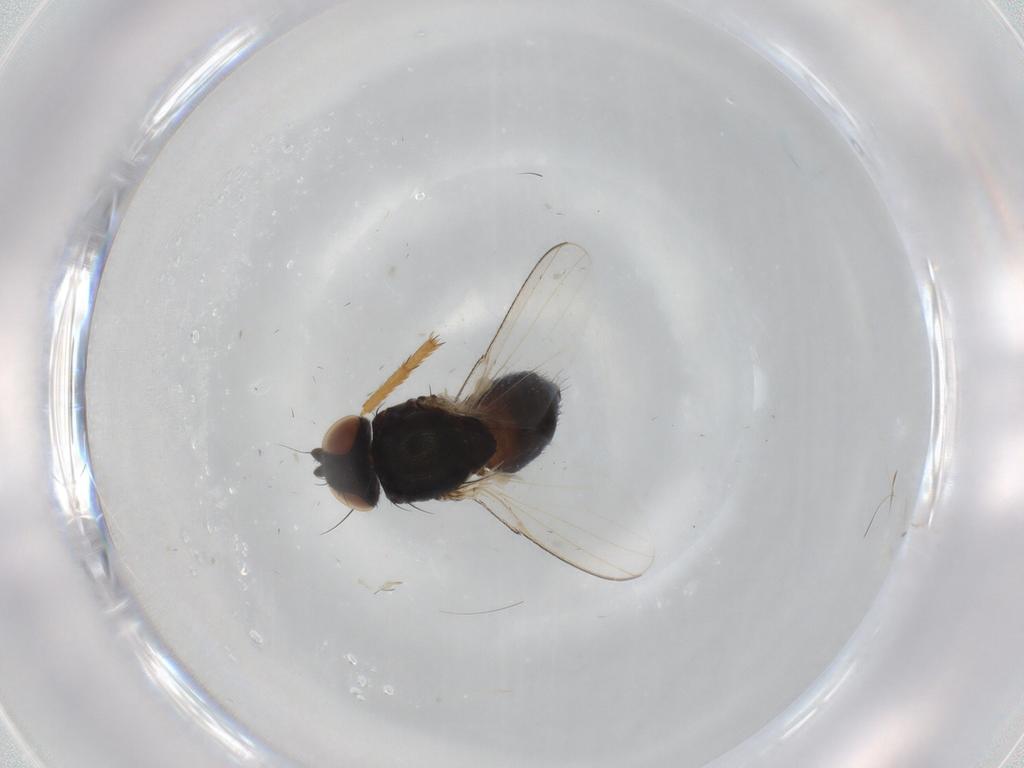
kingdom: Animalia
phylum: Arthropoda
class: Insecta
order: Diptera
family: Milichiidae
